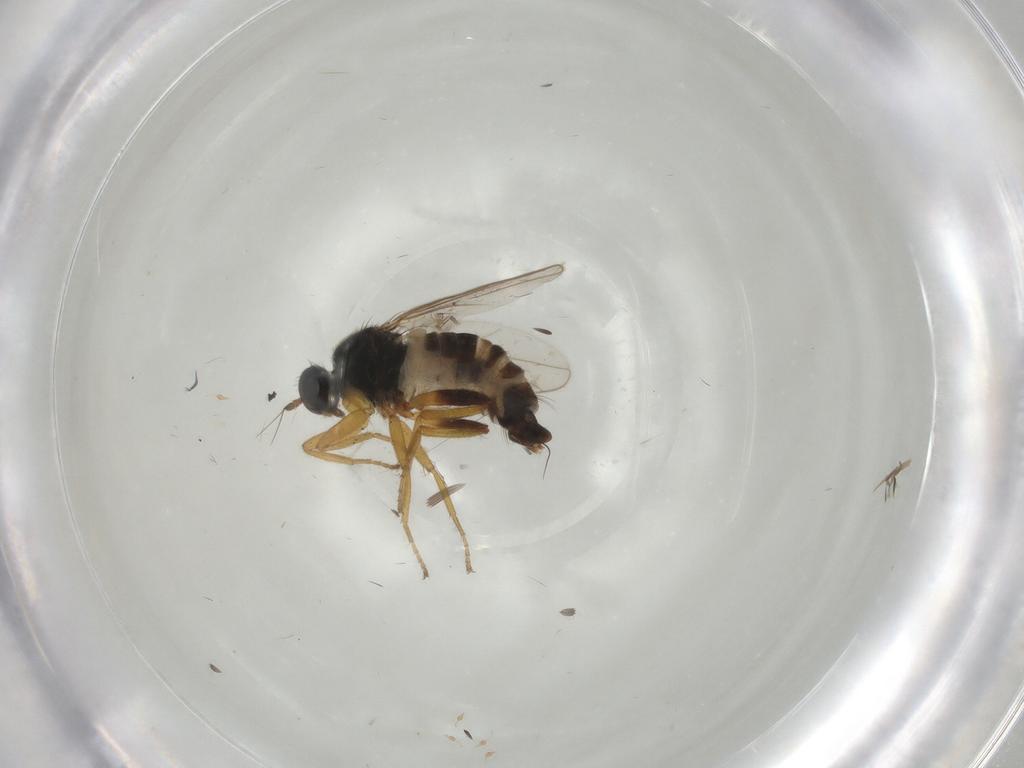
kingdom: Animalia
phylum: Arthropoda
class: Insecta
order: Diptera
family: Hybotidae
